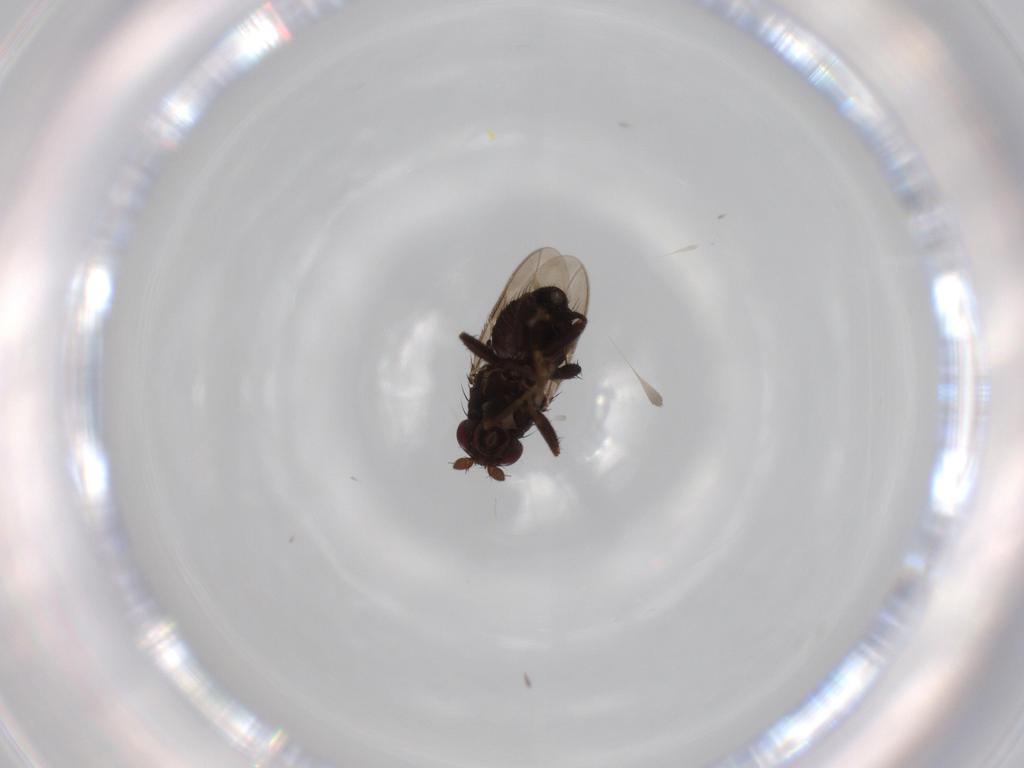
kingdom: Animalia
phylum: Arthropoda
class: Insecta
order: Diptera
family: Sphaeroceridae
